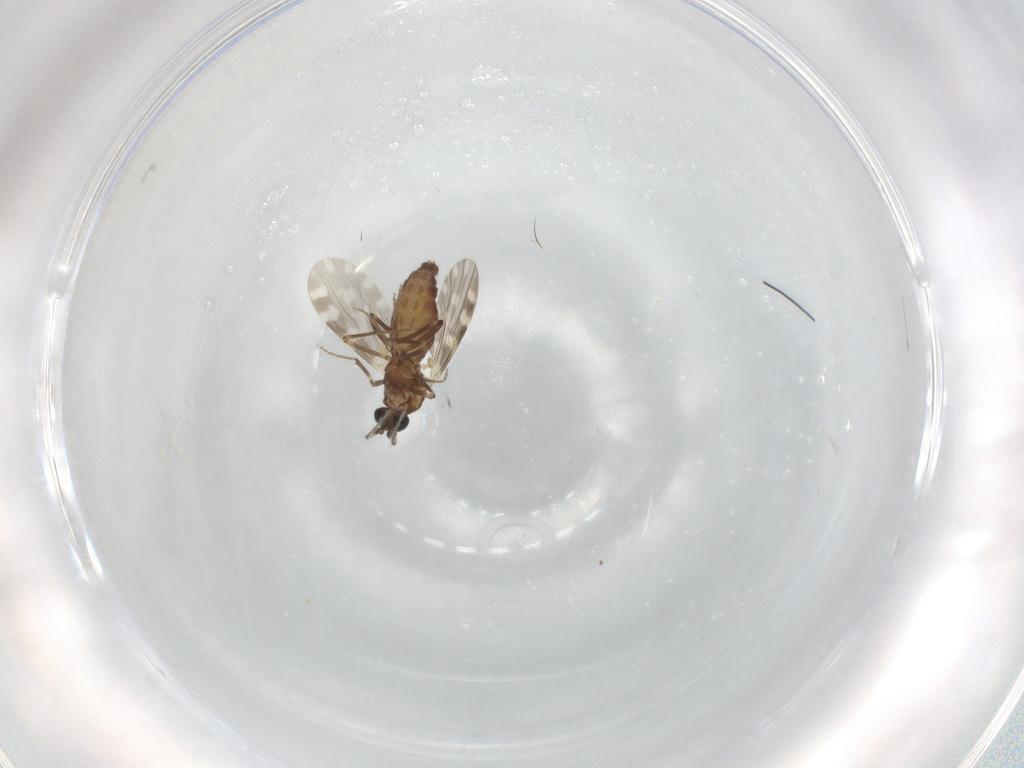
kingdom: Animalia
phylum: Arthropoda
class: Insecta
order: Diptera
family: Ceratopogonidae
